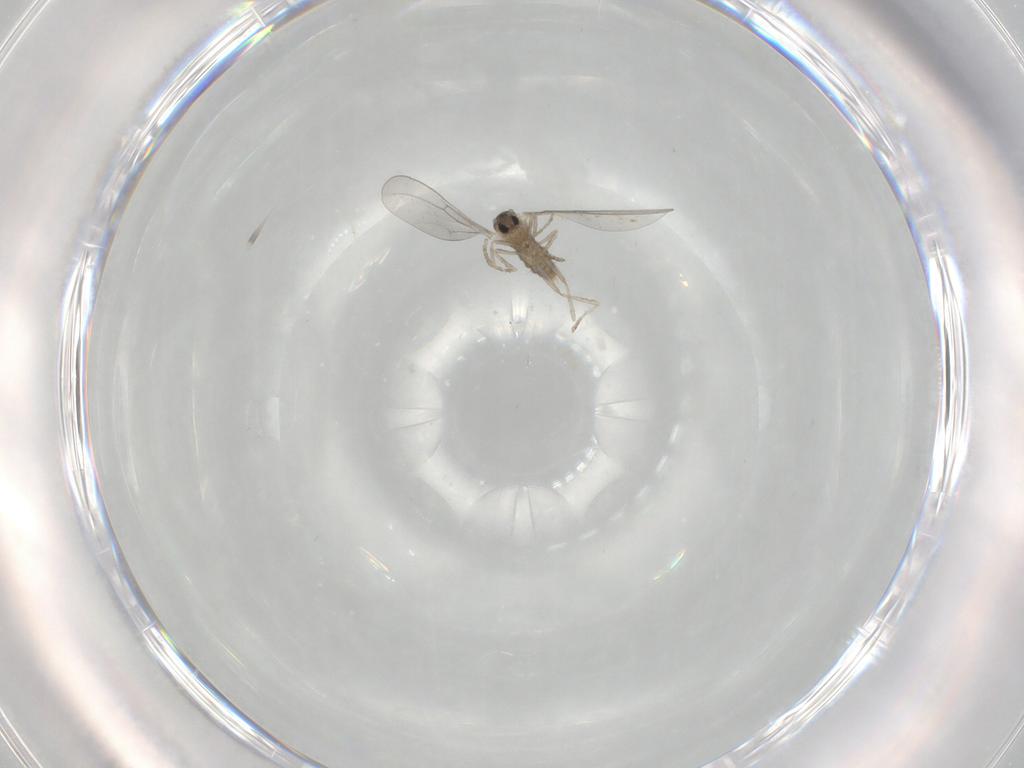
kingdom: Animalia
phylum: Arthropoda
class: Insecta
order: Diptera
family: Cecidomyiidae
